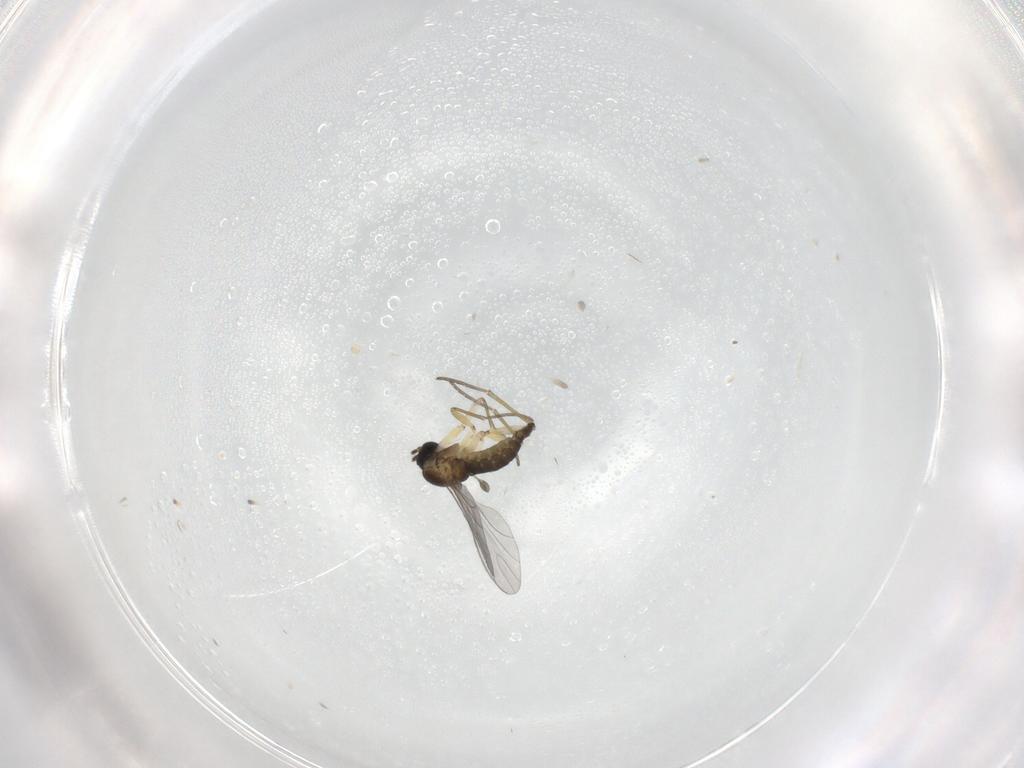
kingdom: Animalia
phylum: Arthropoda
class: Insecta
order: Diptera
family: Sciaridae
